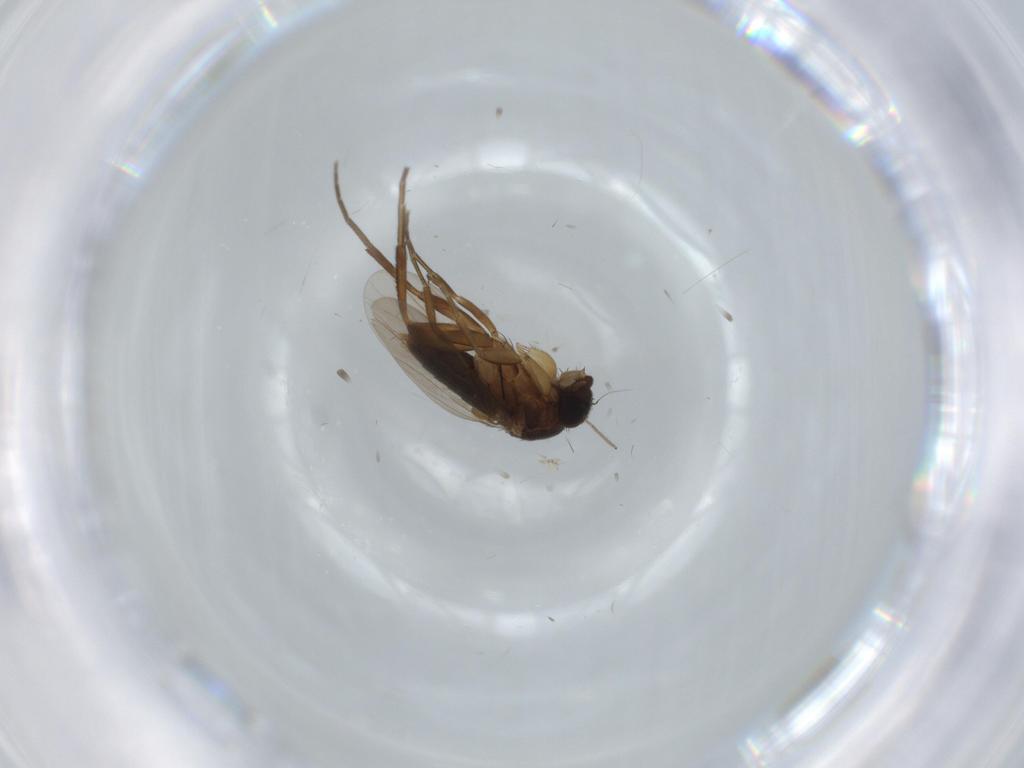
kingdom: Animalia
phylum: Arthropoda
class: Insecta
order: Diptera
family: Phoridae
